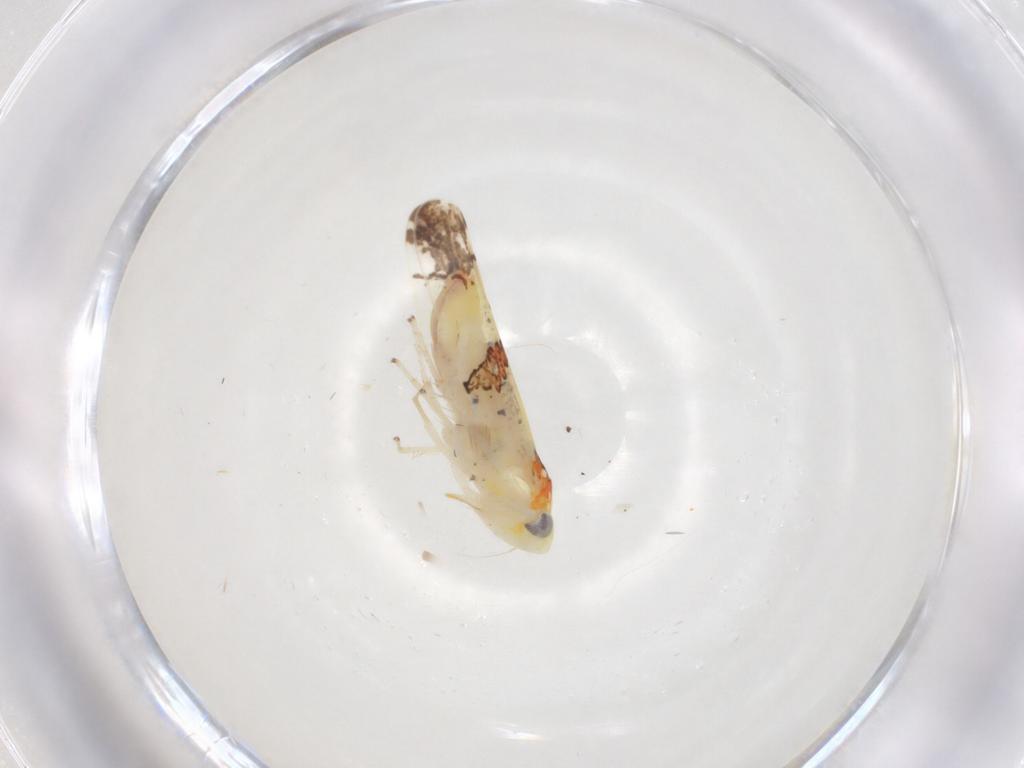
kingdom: Animalia
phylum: Arthropoda
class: Insecta
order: Hemiptera
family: Cicadellidae
